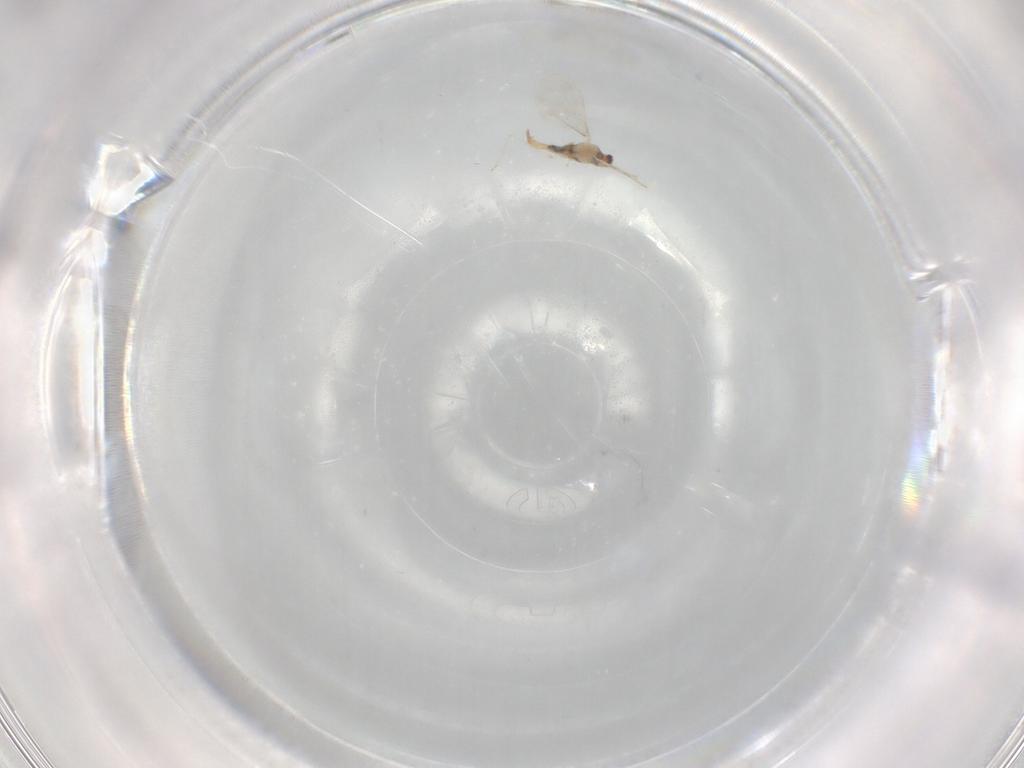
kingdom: Animalia
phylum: Arthropoda
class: Insecta
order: Diptera
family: Cecidomyiidae
